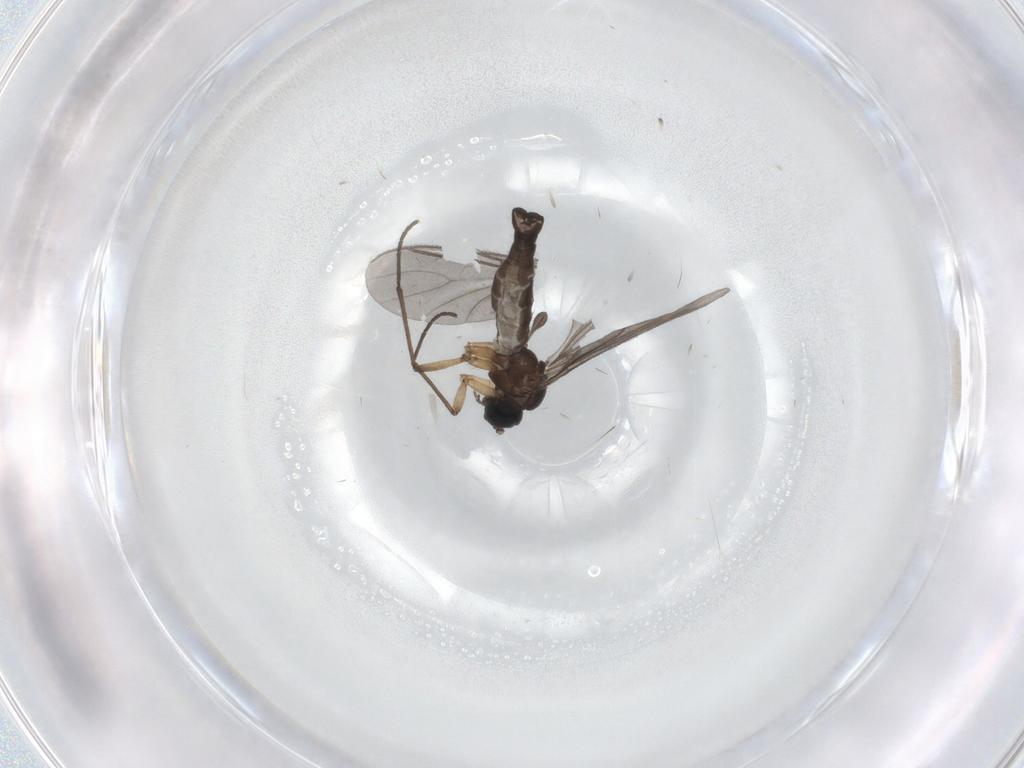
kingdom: Animalia
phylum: Arthropoda
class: Insecta
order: Diptera
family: Sciaridae
